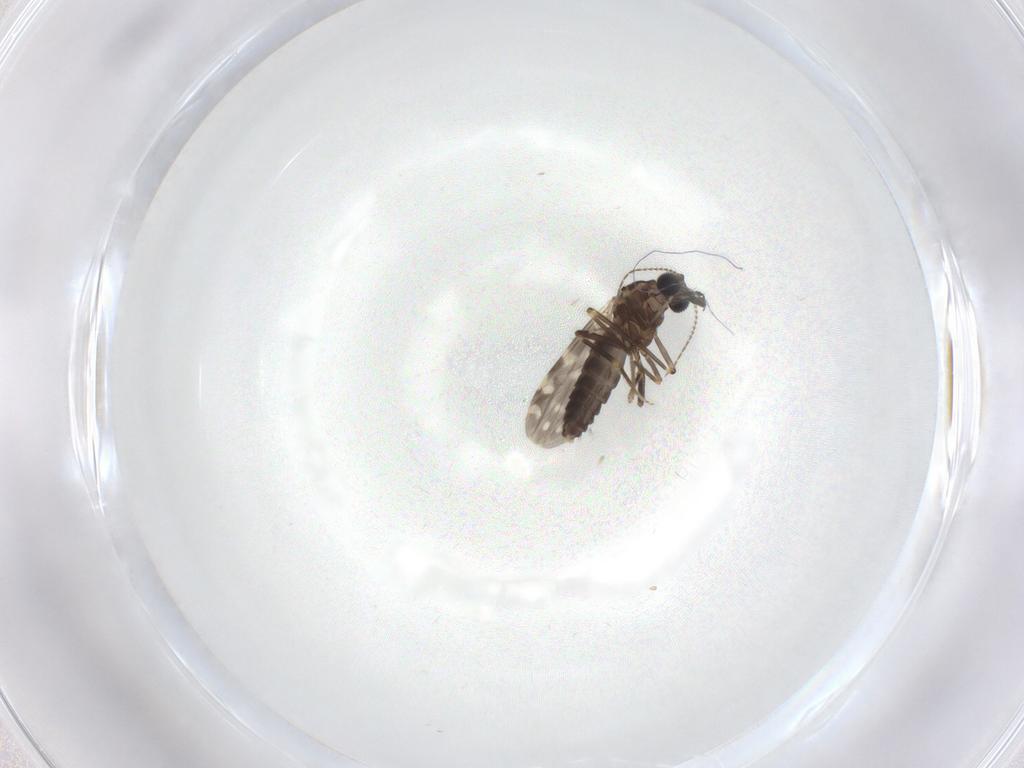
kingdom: Animalia
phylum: Arthropoda
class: Insecta
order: Diptera
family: Ceratopogonidae
